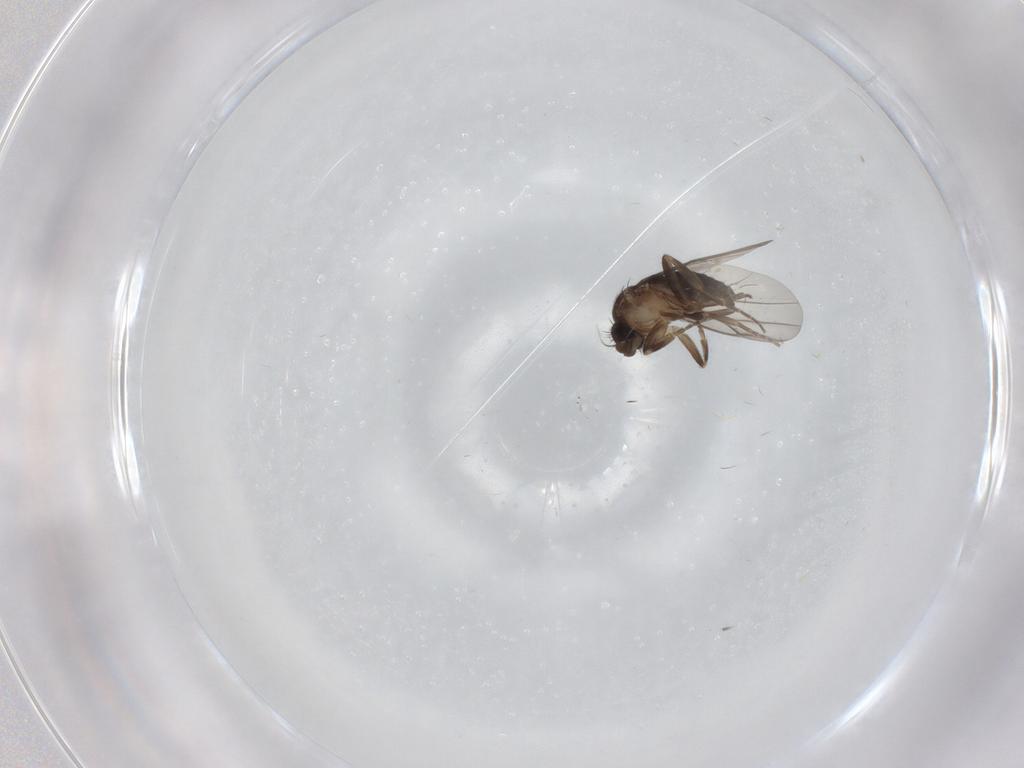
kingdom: Animalia
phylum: Arthropoda
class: Insecta
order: Diptera
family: Phoridae
